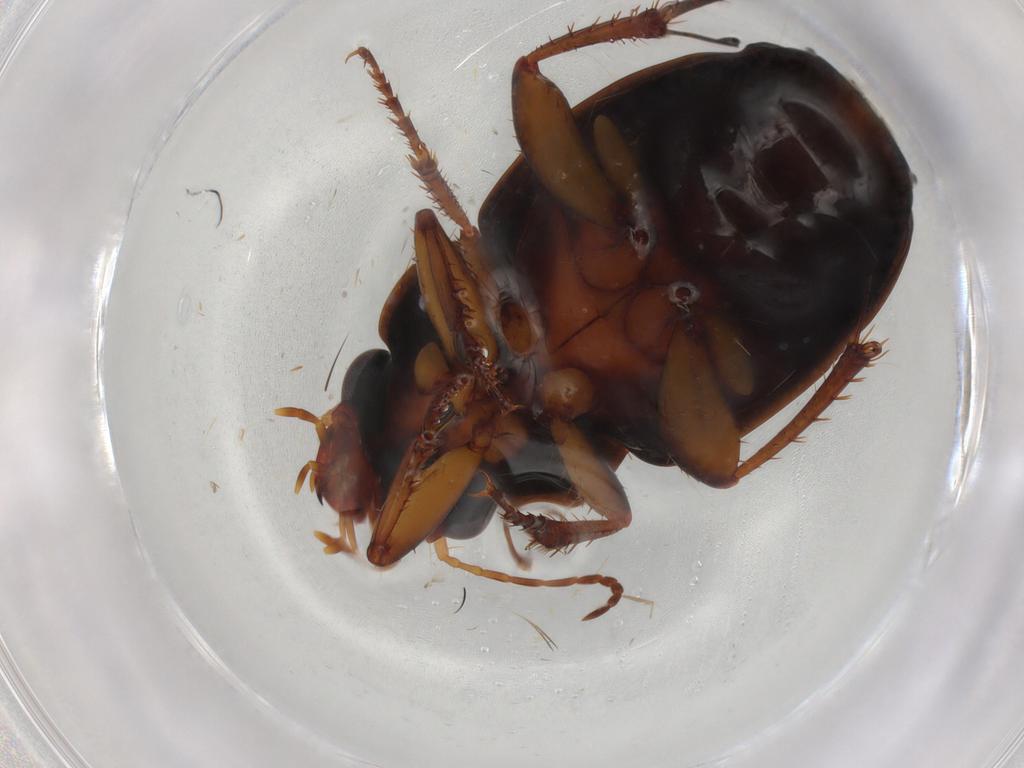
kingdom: Animalia
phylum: Arthropoda
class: Insecta
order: Coleoptera
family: Carabidae
